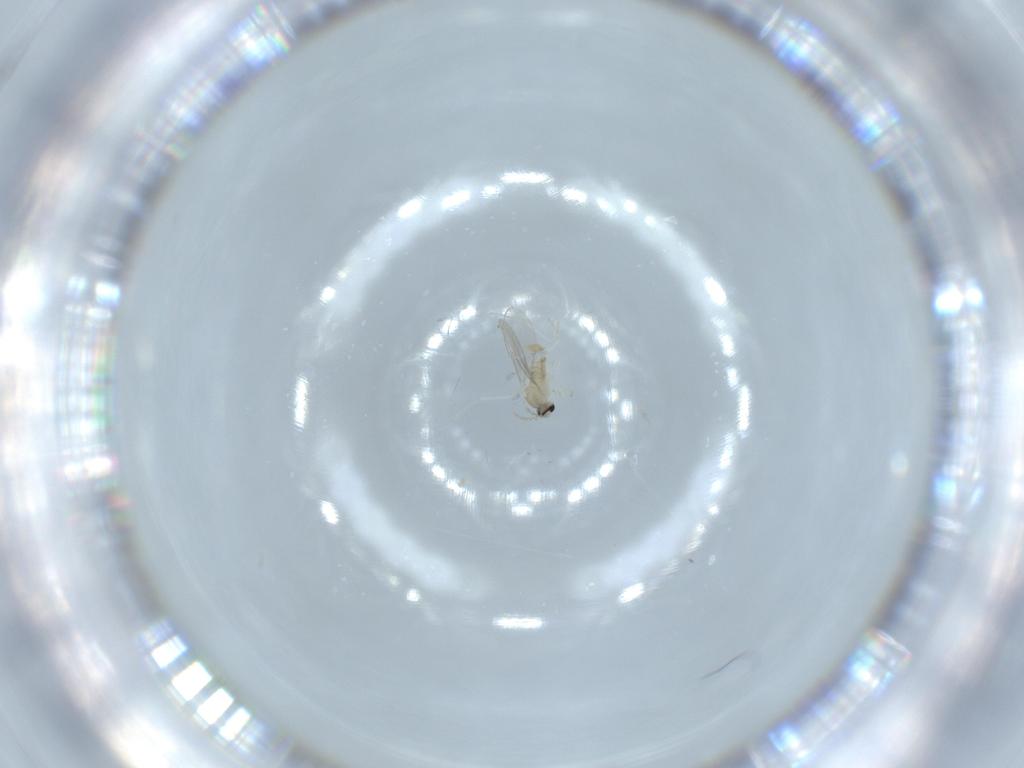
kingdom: Animalia
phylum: Arthropoda
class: Insecta
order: Diptera
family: Cecidomyiidae
